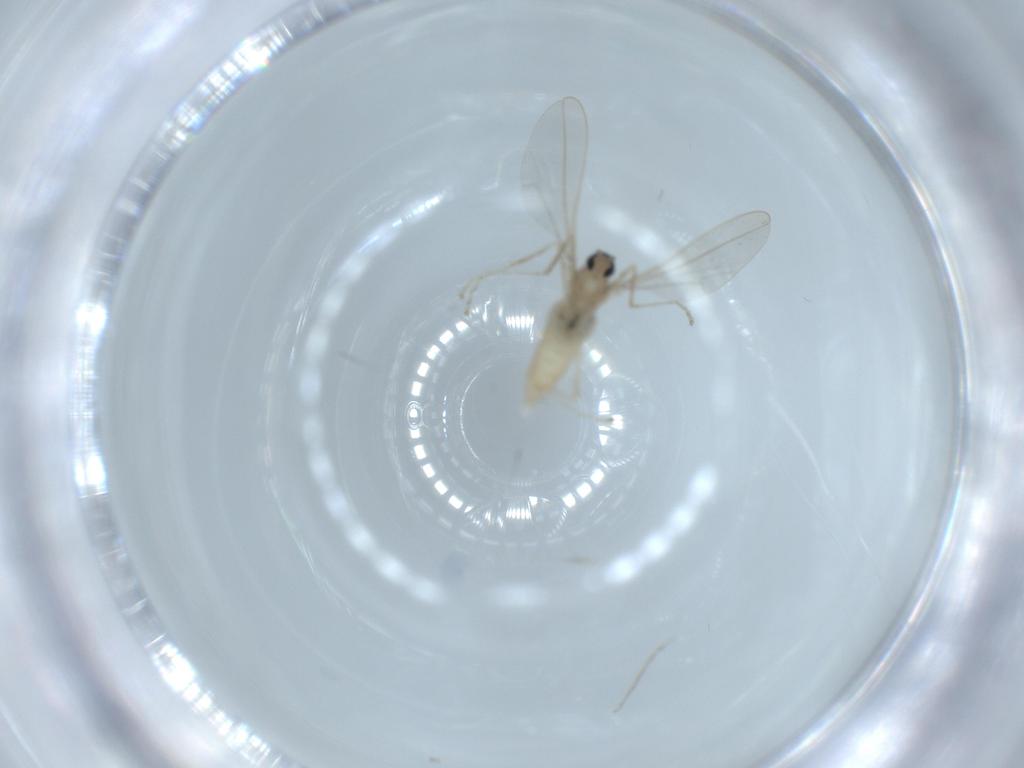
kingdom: Animalia
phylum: Arthropoda
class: Insecta
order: Diptera
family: Cecidomyiidae
